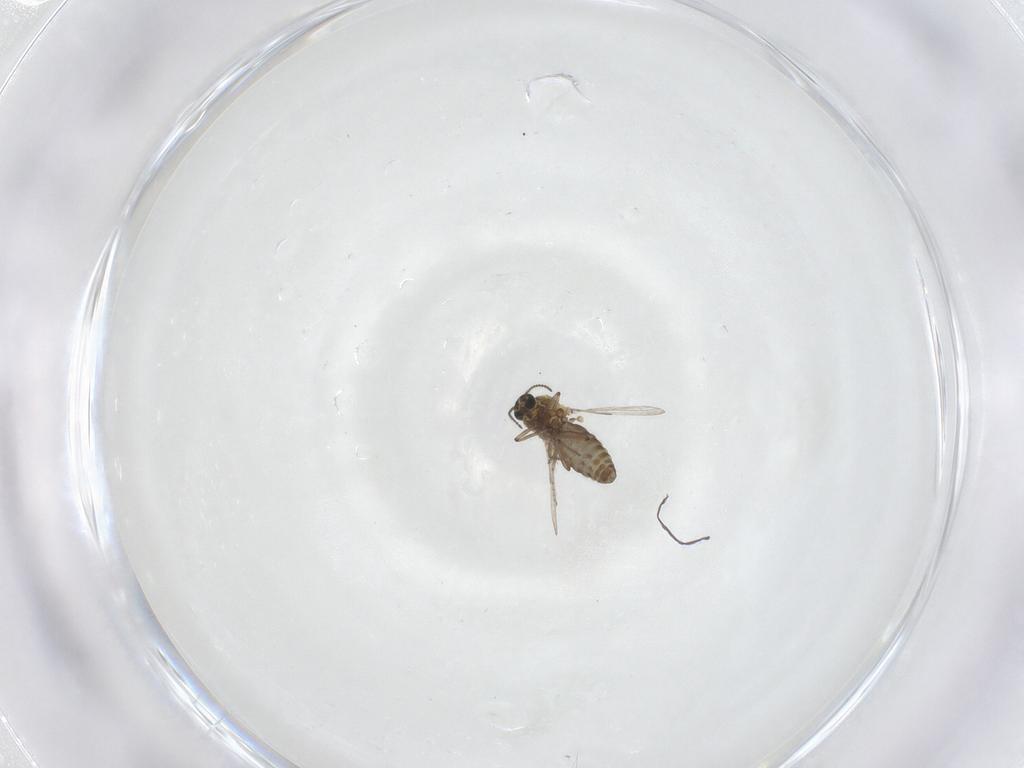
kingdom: Animalia
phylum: Arthropoda
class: Insecta
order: Diptera
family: Ceratopogonidae
